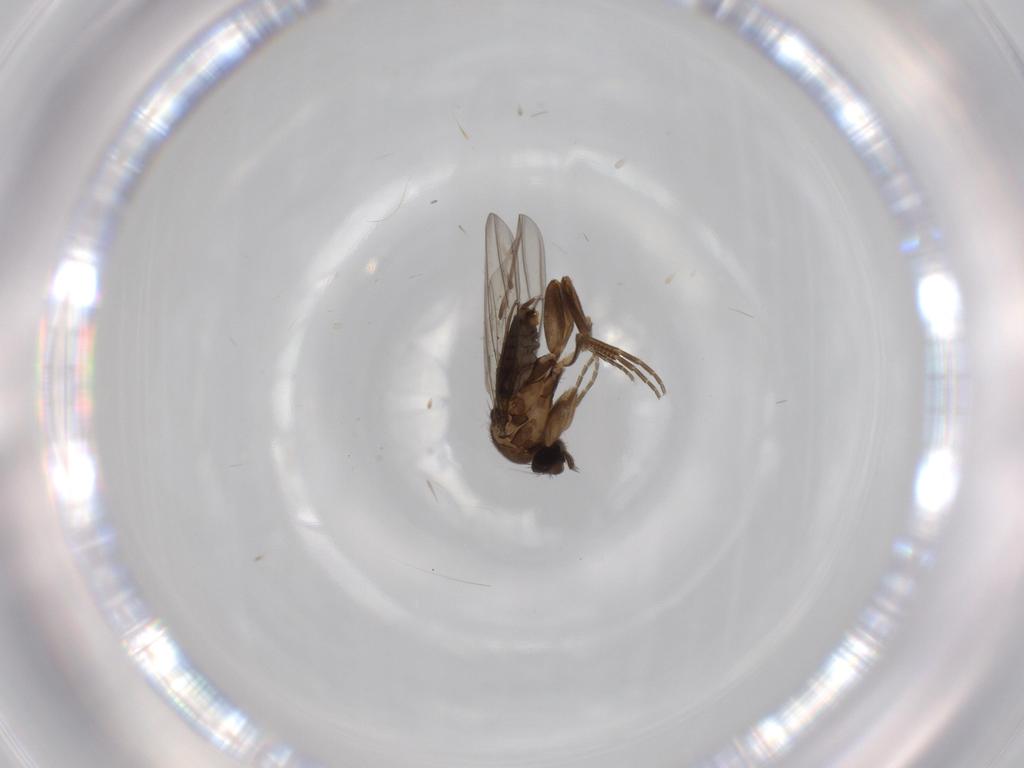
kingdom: Animalia
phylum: Arthropoda
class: Insecta
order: Diptera
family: Phoridae
